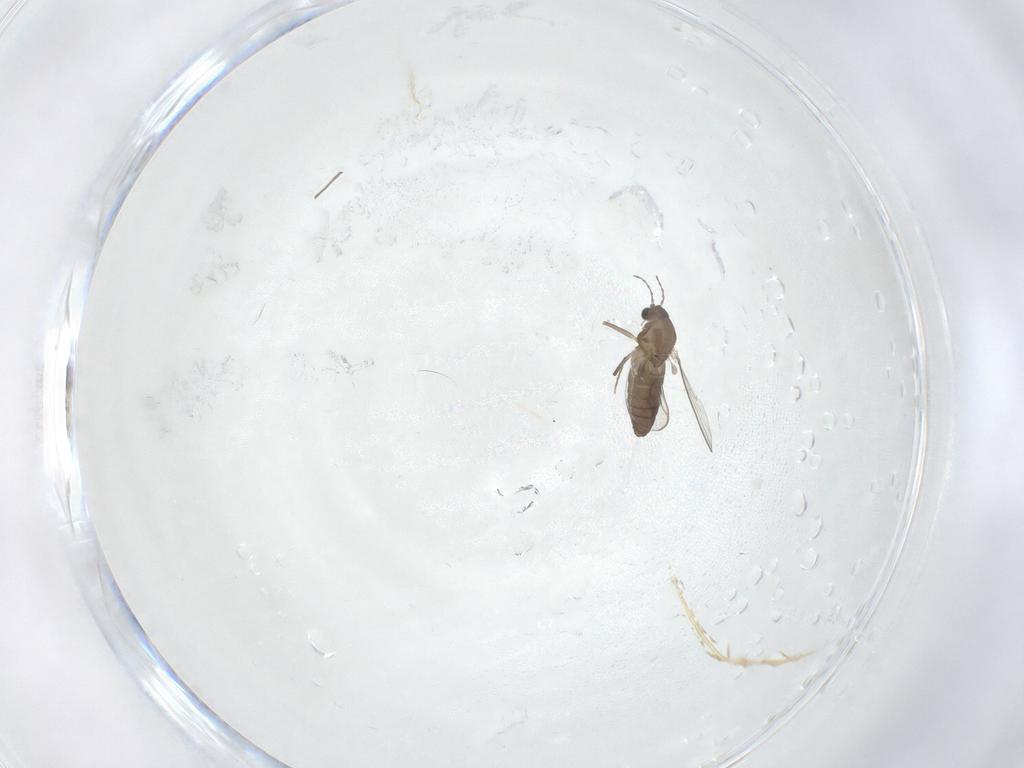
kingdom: Animalia
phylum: Arthropoda
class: Insecta
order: Diptera
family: Chironomidae
